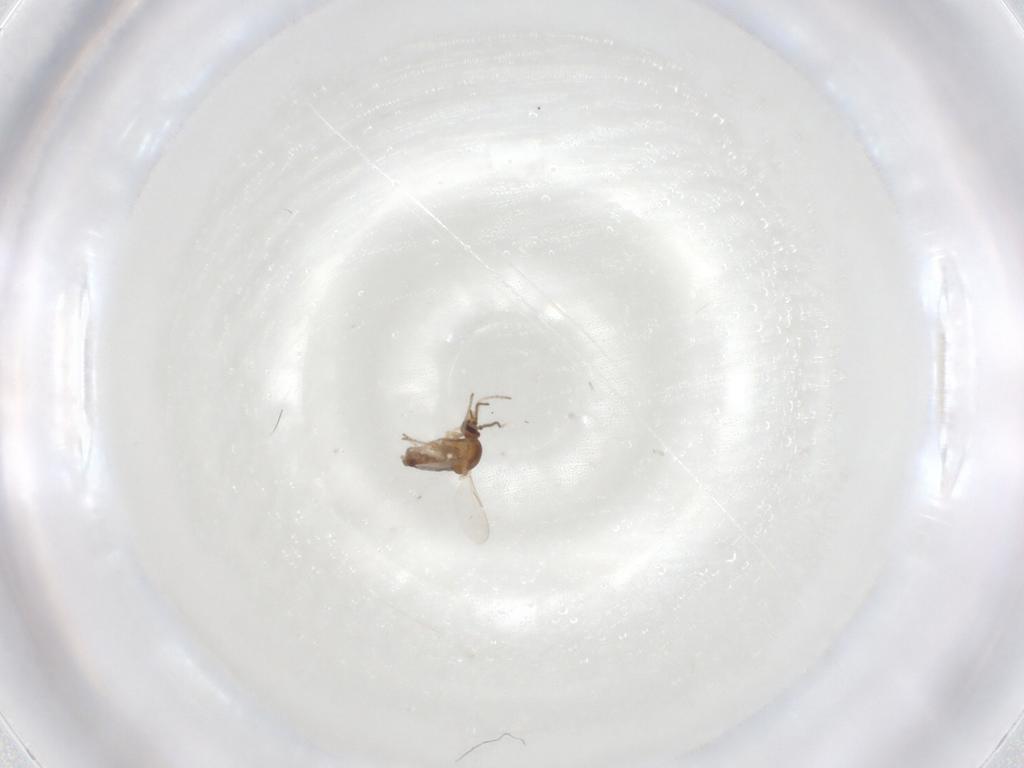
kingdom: Animalia
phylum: Arthropoda
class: Insecta
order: Diptera
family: Ceratopogonidae
